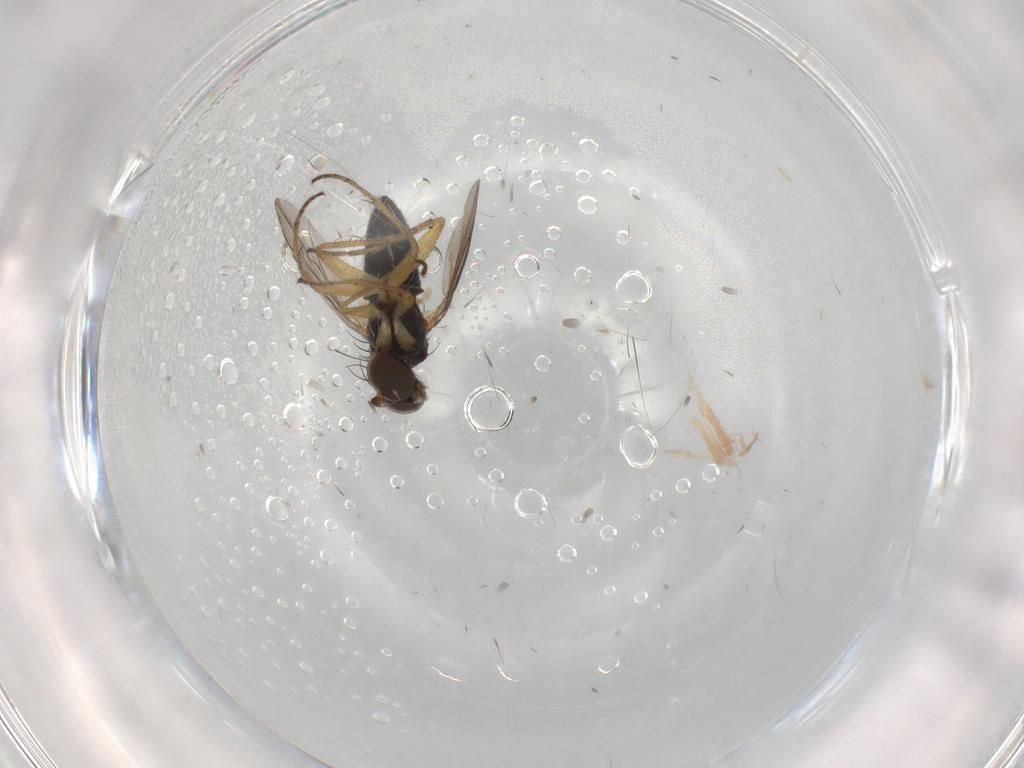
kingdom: Animalia
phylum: Arthropoda
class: Insecta
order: Diptera
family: Dolichopodidae
